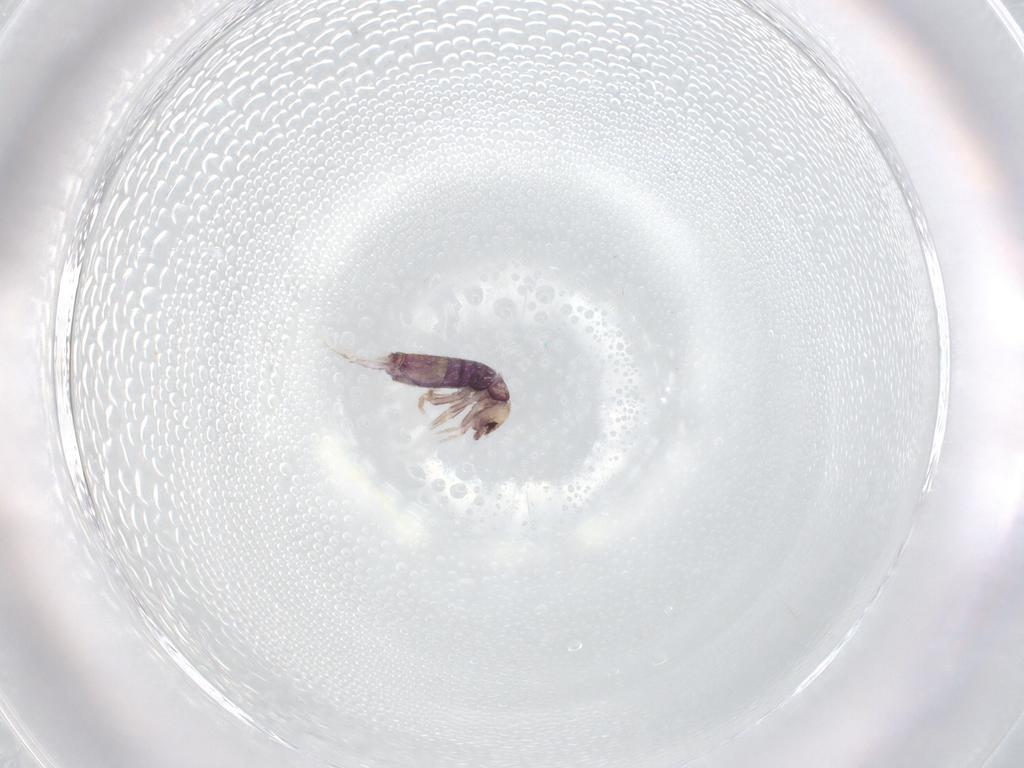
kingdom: Animalia
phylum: Arthropoda
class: Collembola
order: Entomobryomorpha
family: Entomobryidae
